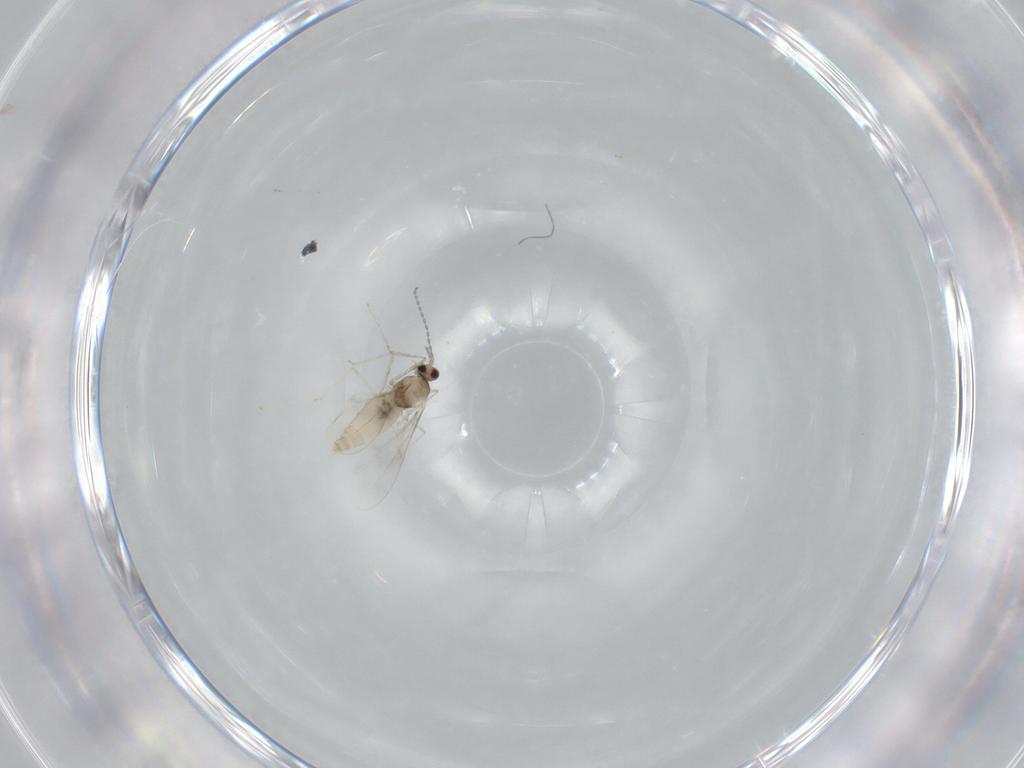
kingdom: Animalia
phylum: Arthropoda
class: Insecta
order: Diptera
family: Cecidomyiidae
